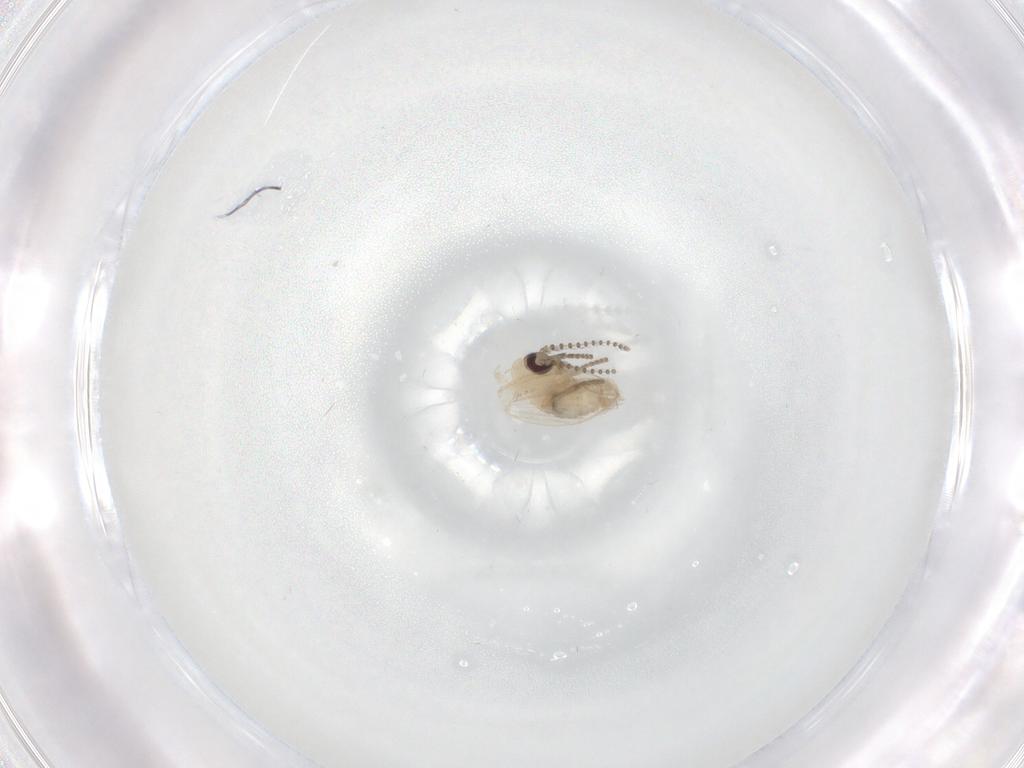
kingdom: Animalia
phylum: Arthropoda
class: Insecta
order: Diptera
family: Psychodidae
